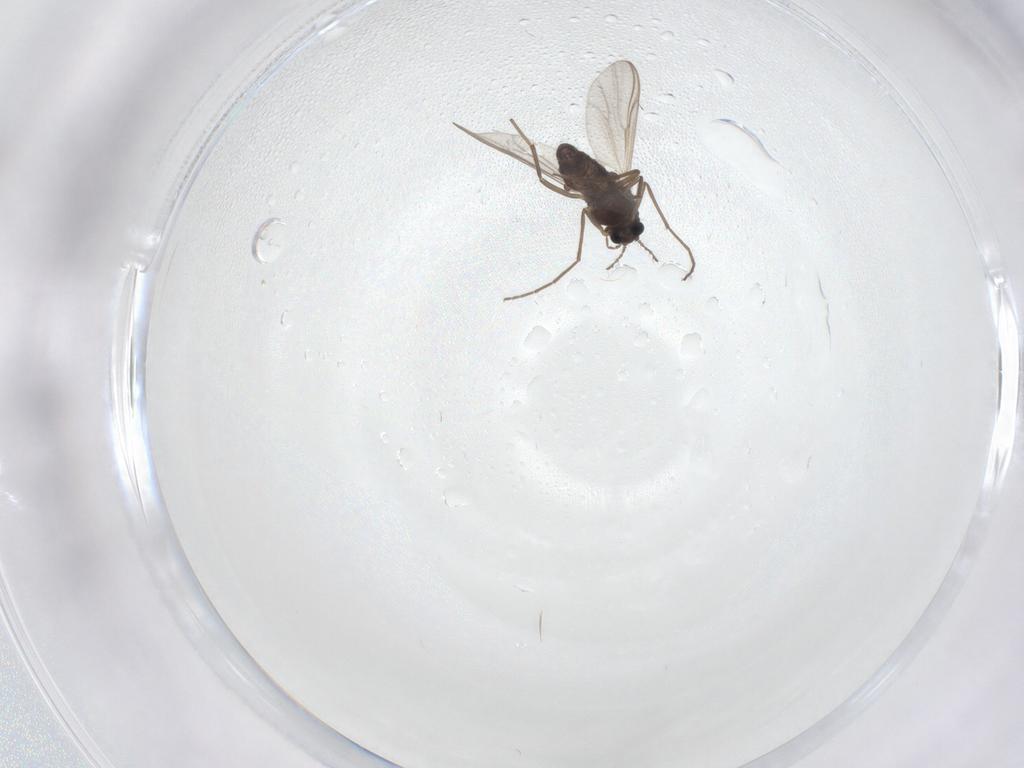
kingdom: Animalia
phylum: Arthropoda
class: Insecta
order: Diptera
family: Chironomidae
